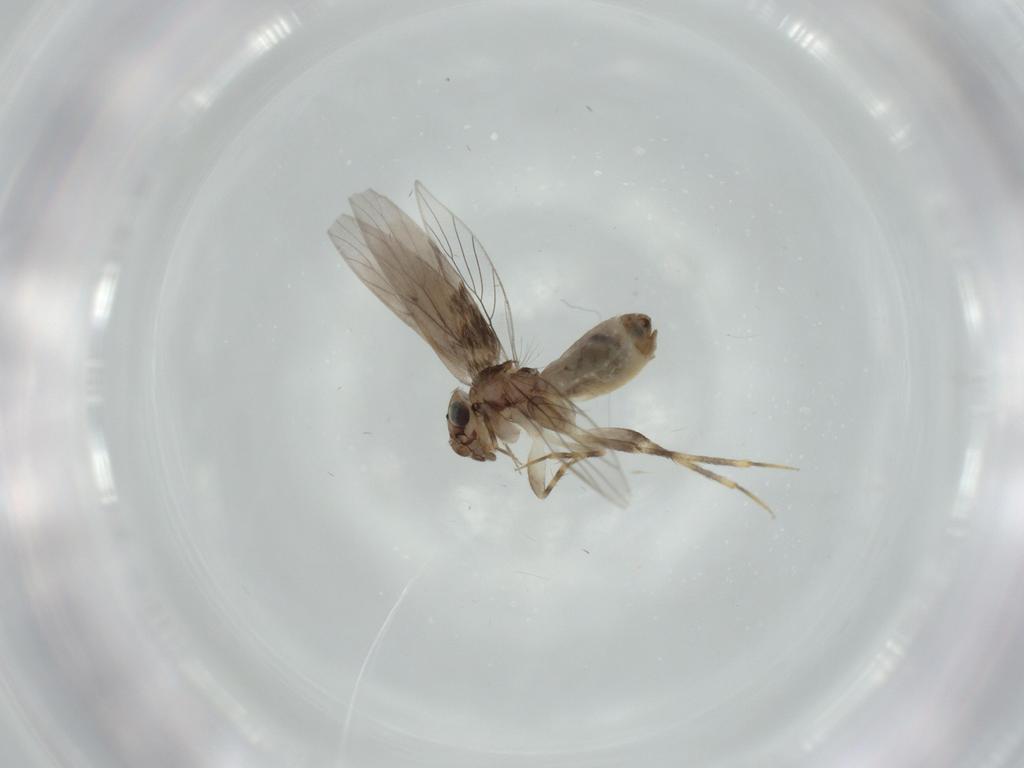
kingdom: Animalia
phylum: Arthropoda
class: Insecta
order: Psocodea
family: Lepidopsocidae
